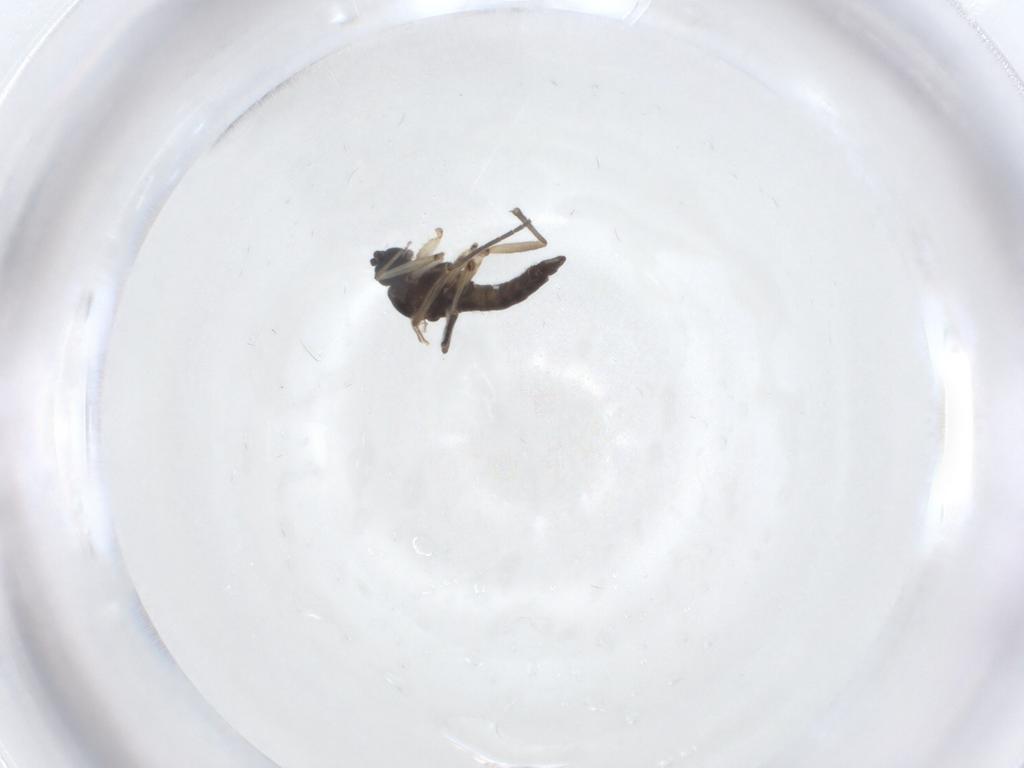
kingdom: Animalia
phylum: Arthropoda
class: Insecta
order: Diptera
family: Sciaridae
